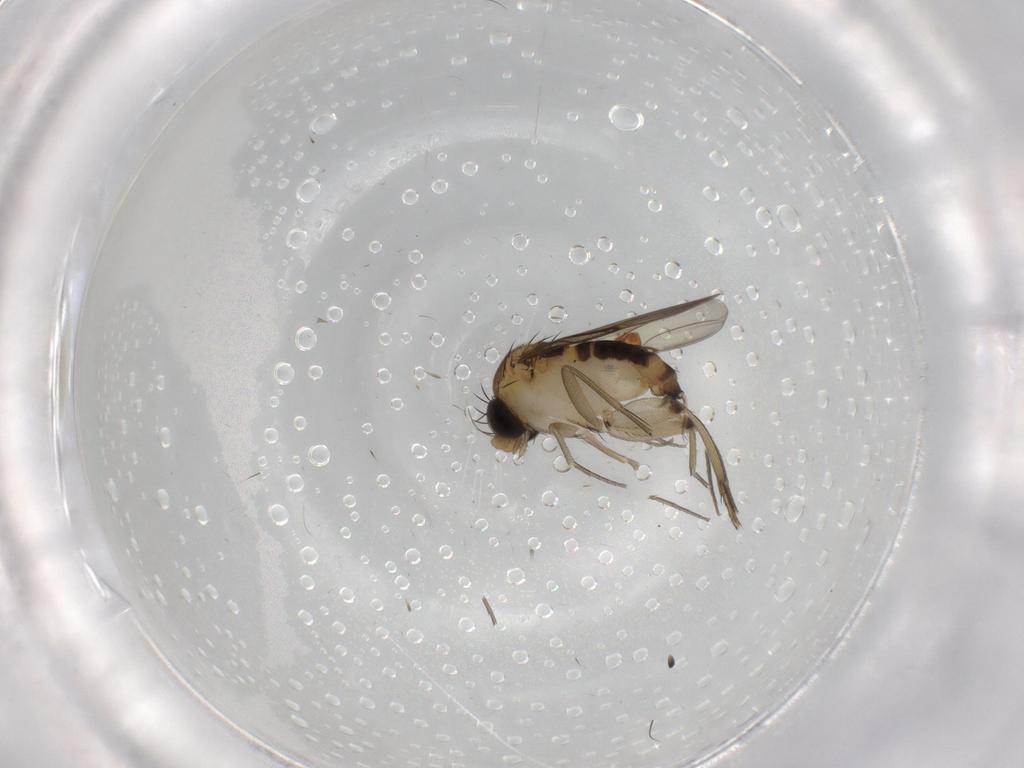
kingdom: Animalia
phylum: Arthropoda
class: Insecta
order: Diptera
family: Phoridae
